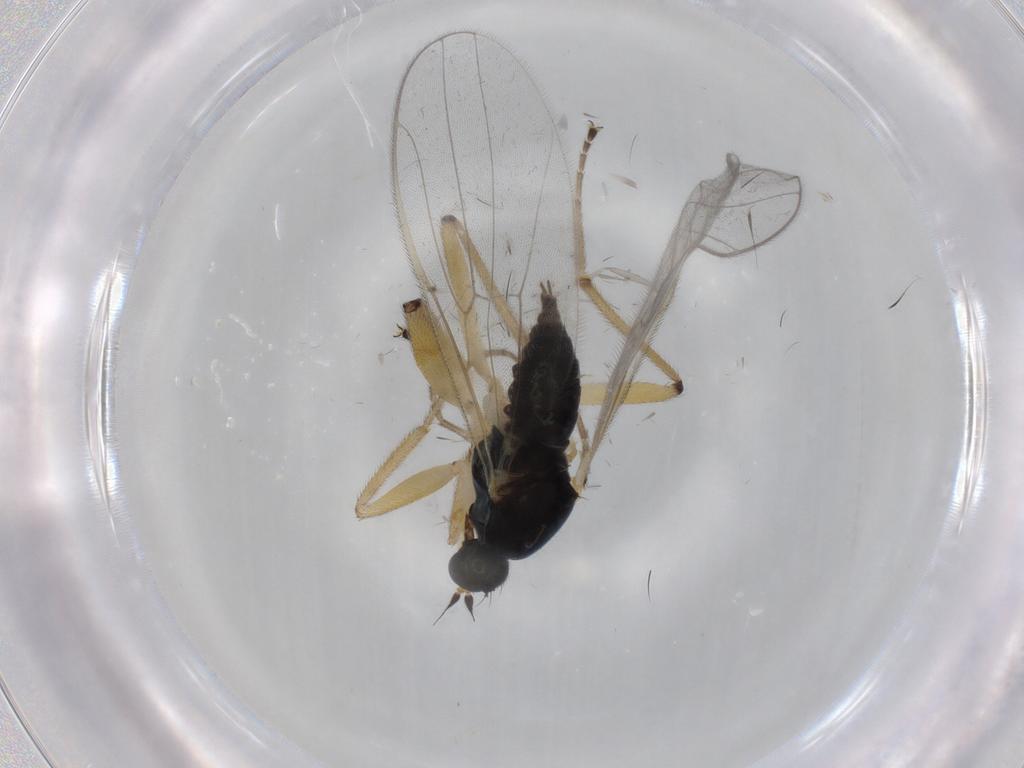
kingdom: Animalia
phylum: Arthropoda
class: Insecta
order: Diptera
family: Hybotidae
